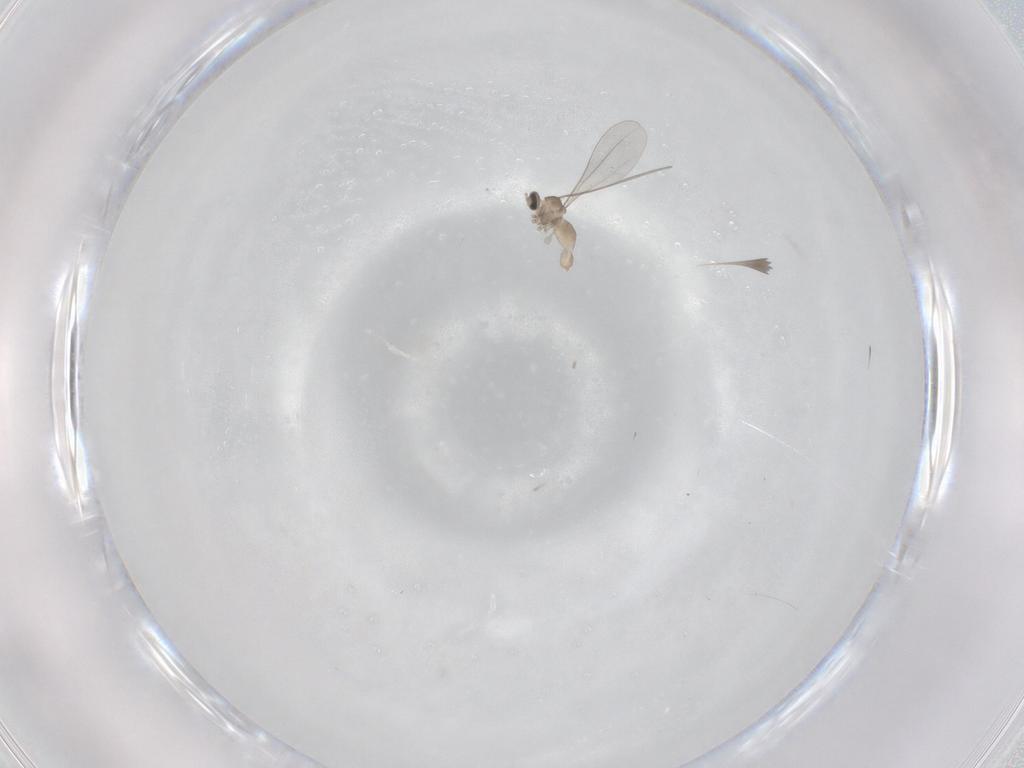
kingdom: Animalia
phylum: Arthropoda
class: Insecta
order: Diptera
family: Cecidomyiidae
